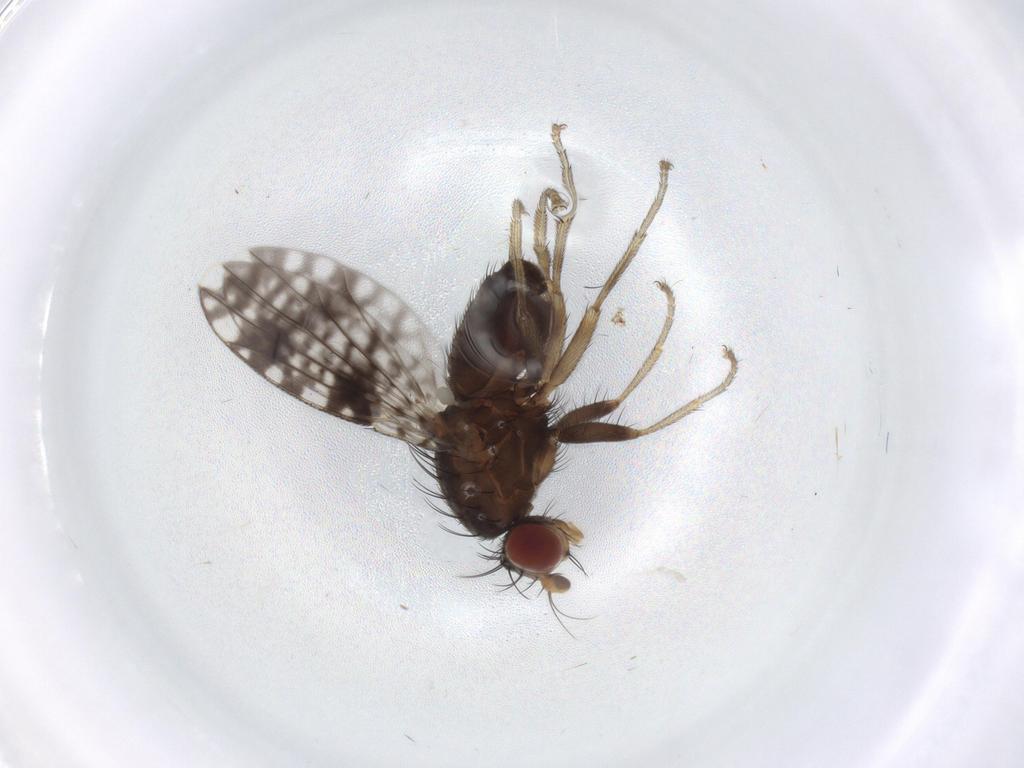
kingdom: Animalia
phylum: Arthropoda
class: Insecta
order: Diptera
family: Tephritidae
